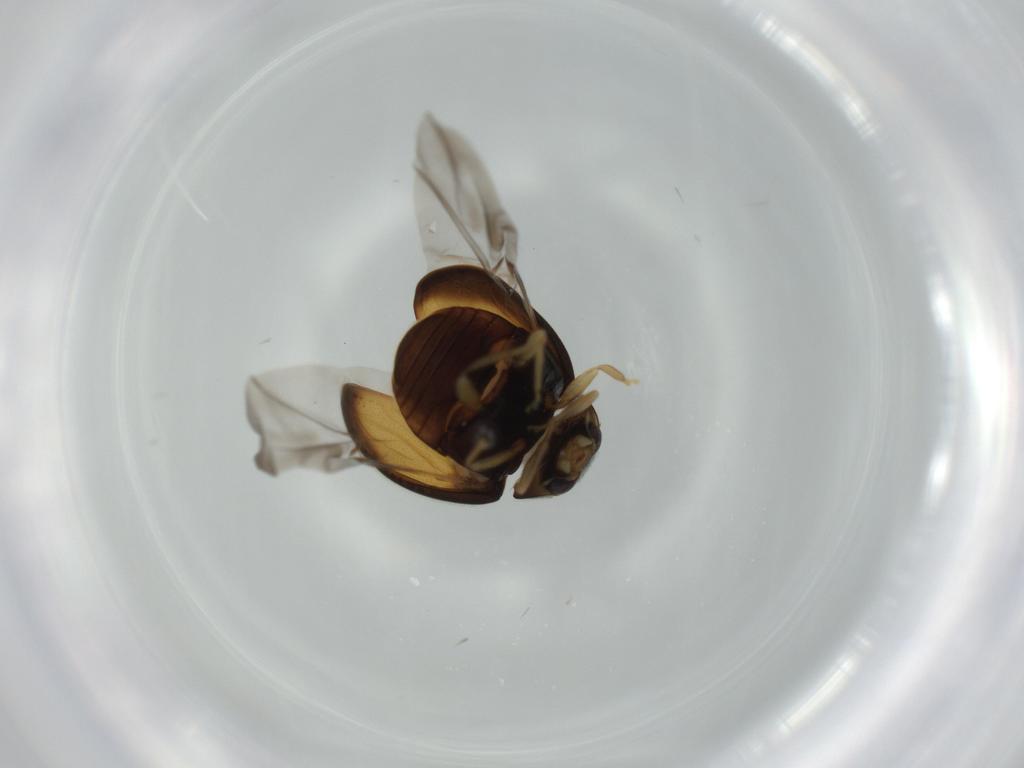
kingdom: Animalia
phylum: Arthropoda
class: Insecta
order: Coleoptera
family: Coccinellidae
